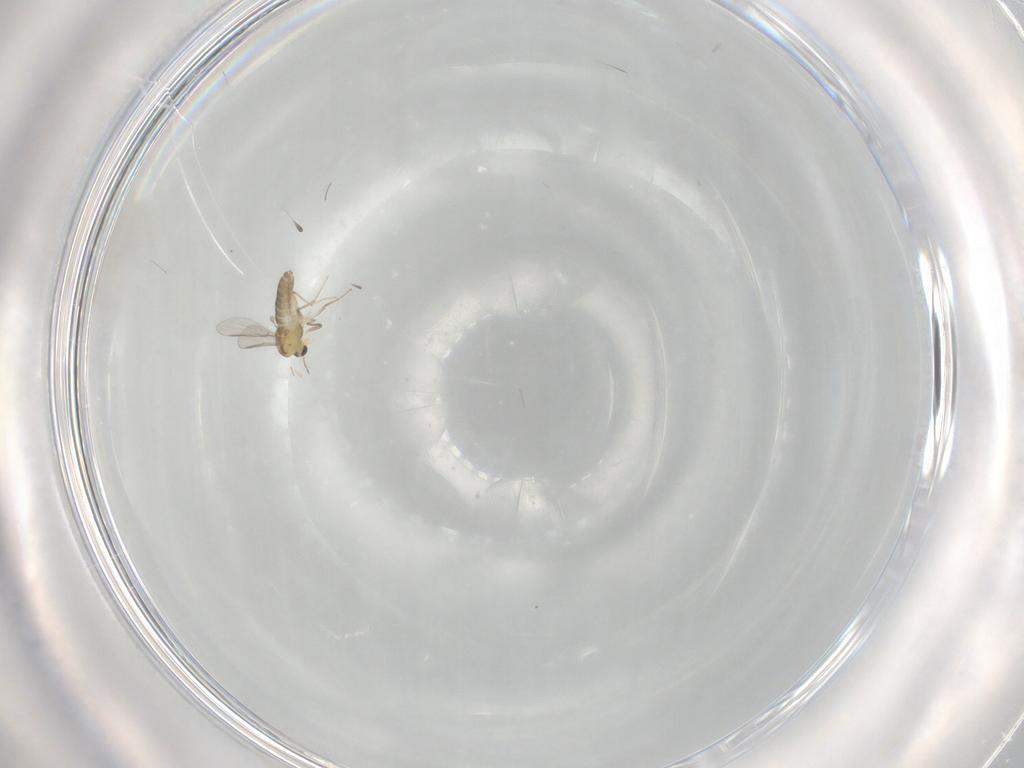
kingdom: Animalia
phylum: Arthropoda
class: Insecta
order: Diptera
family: Chironomidae
